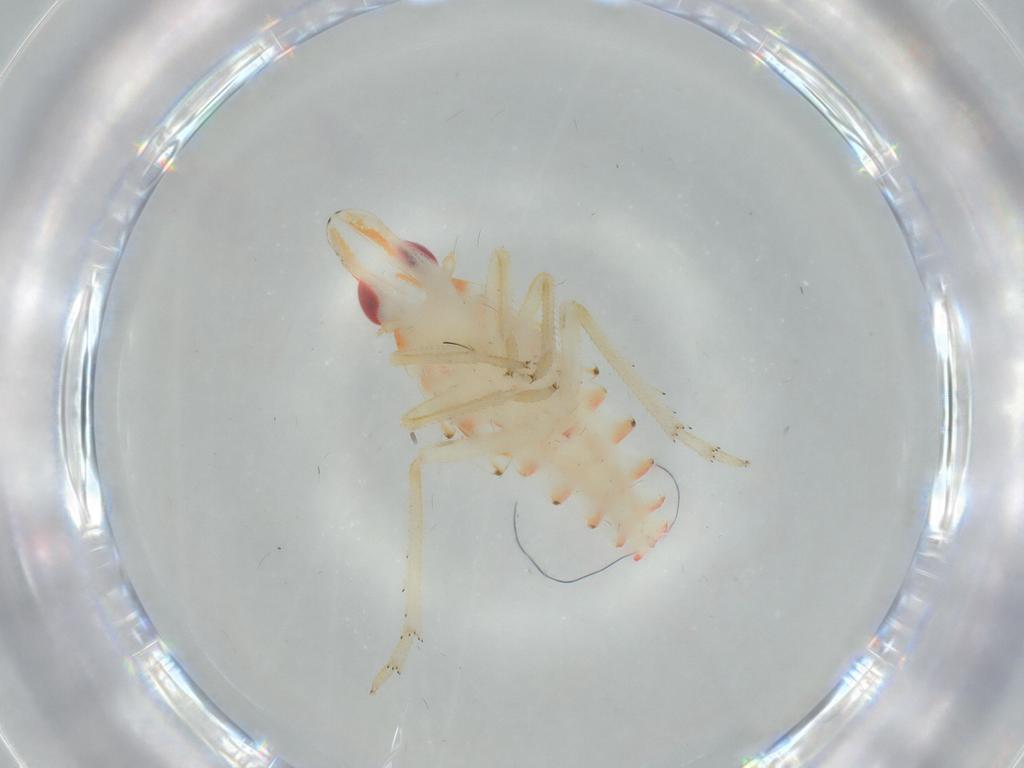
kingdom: Animalia
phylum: Arthropoda
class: Insecta
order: Hemiptera
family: Tropiduchidae
